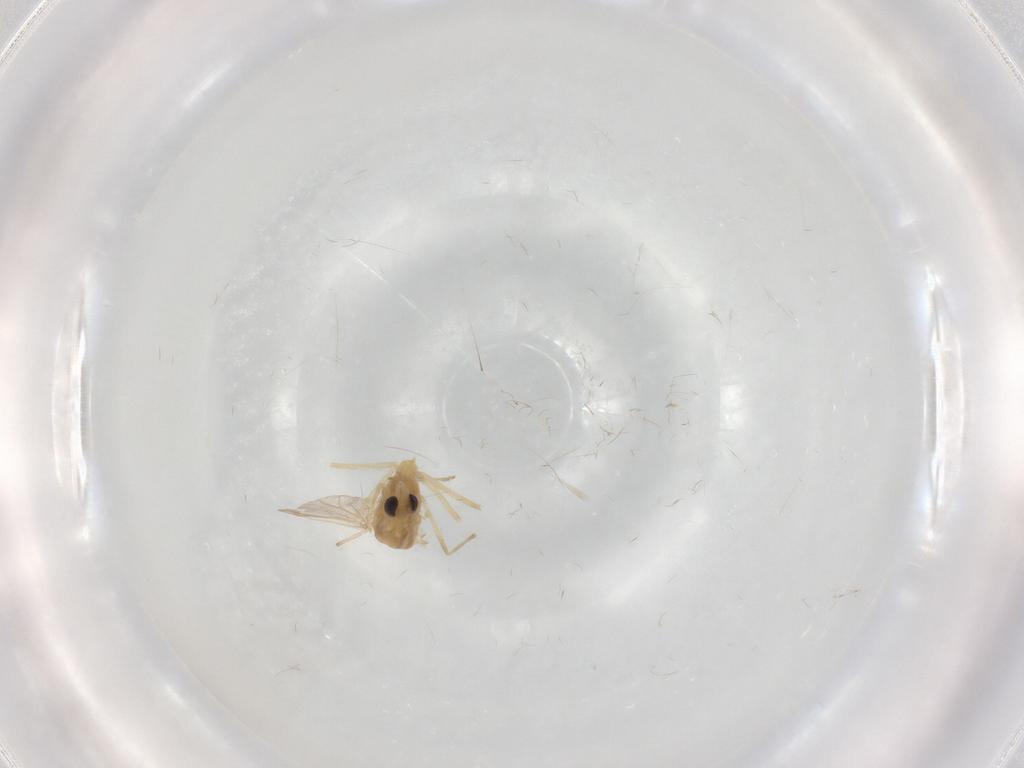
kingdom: Animalia
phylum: Arthropoda
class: Insecta
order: Diptera
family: Chironomidae
